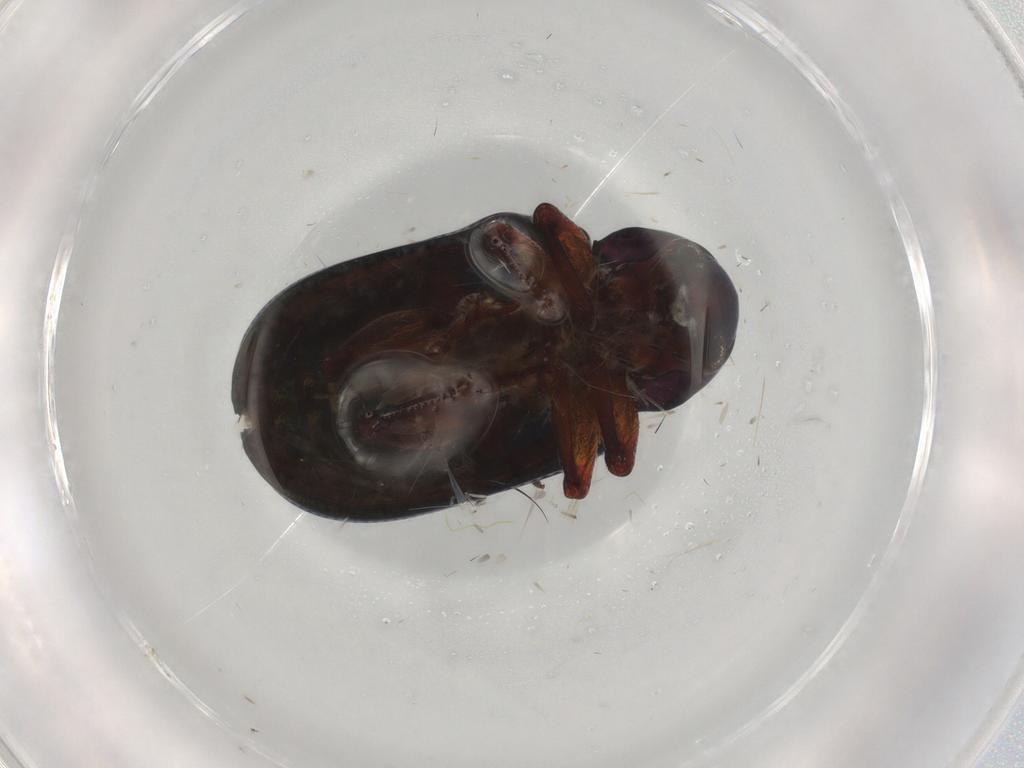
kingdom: Animalia
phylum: Arthropoda
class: Insecta
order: Coleoptera
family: Chrysomelidae
